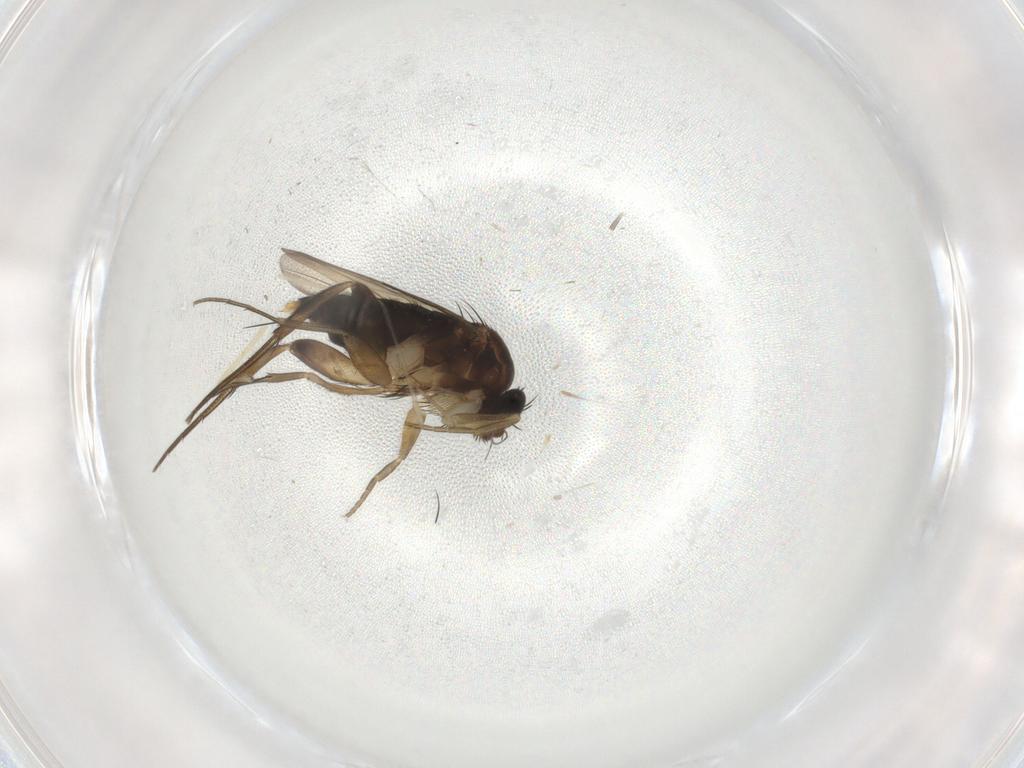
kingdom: Animalia
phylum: Arthropoda
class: Insecta
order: Diptera
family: Phoridae
